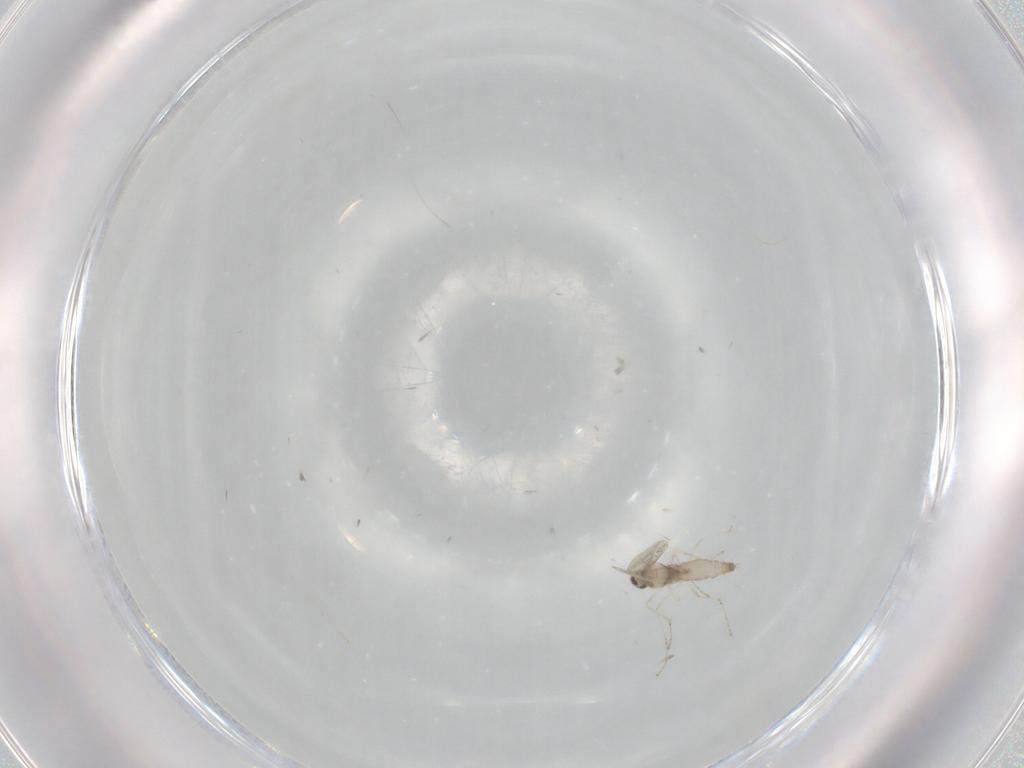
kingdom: Animalia
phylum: Arthropoda
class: Insecta
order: Diptera
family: Cecidomyiidae
